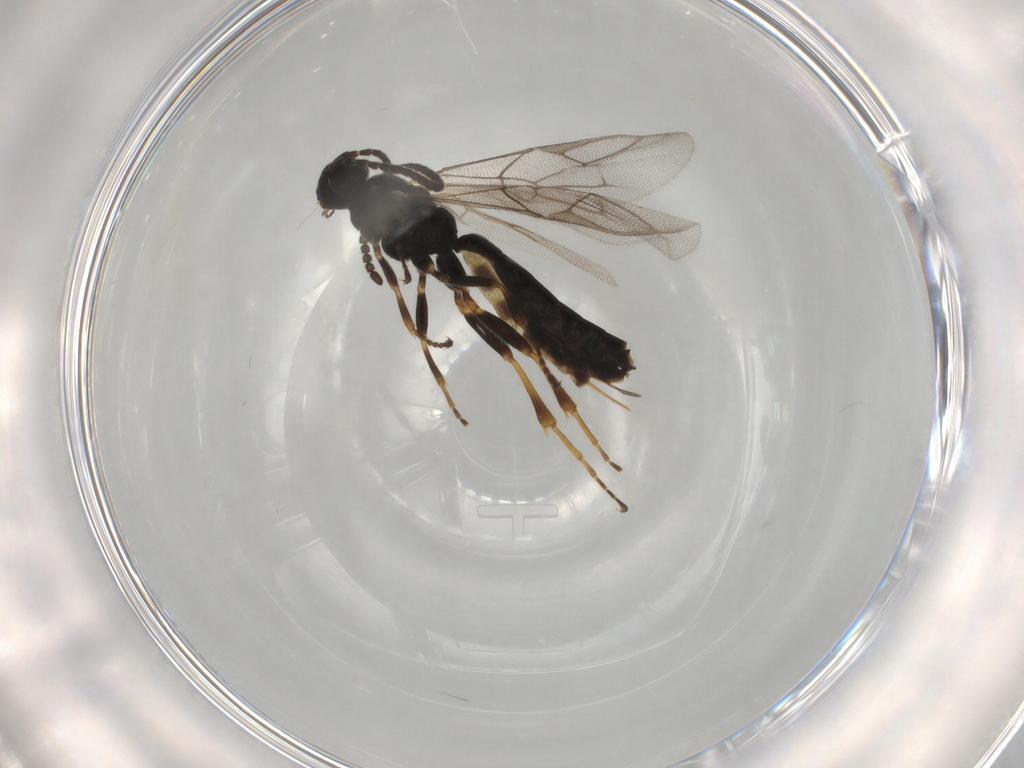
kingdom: Animalia
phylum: Arthropoda
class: Insecta
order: Hymenoptera
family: Ichneumonidae
